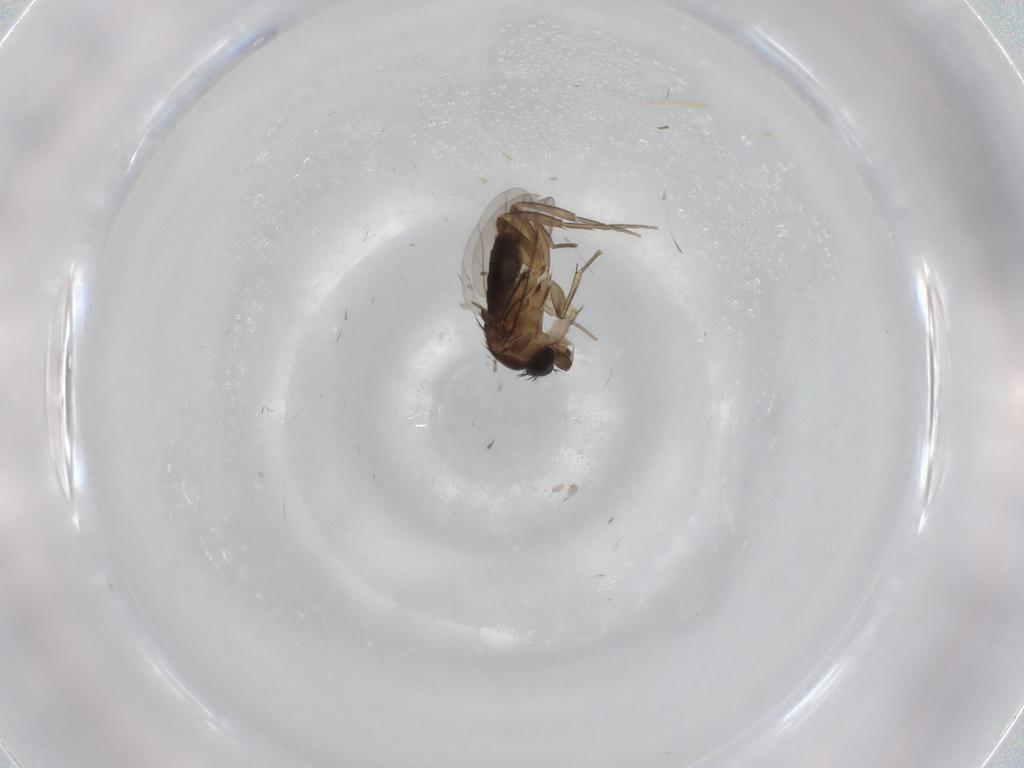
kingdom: Animalia
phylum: Arthropoda
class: Insecta
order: Diptera
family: Phoridae
